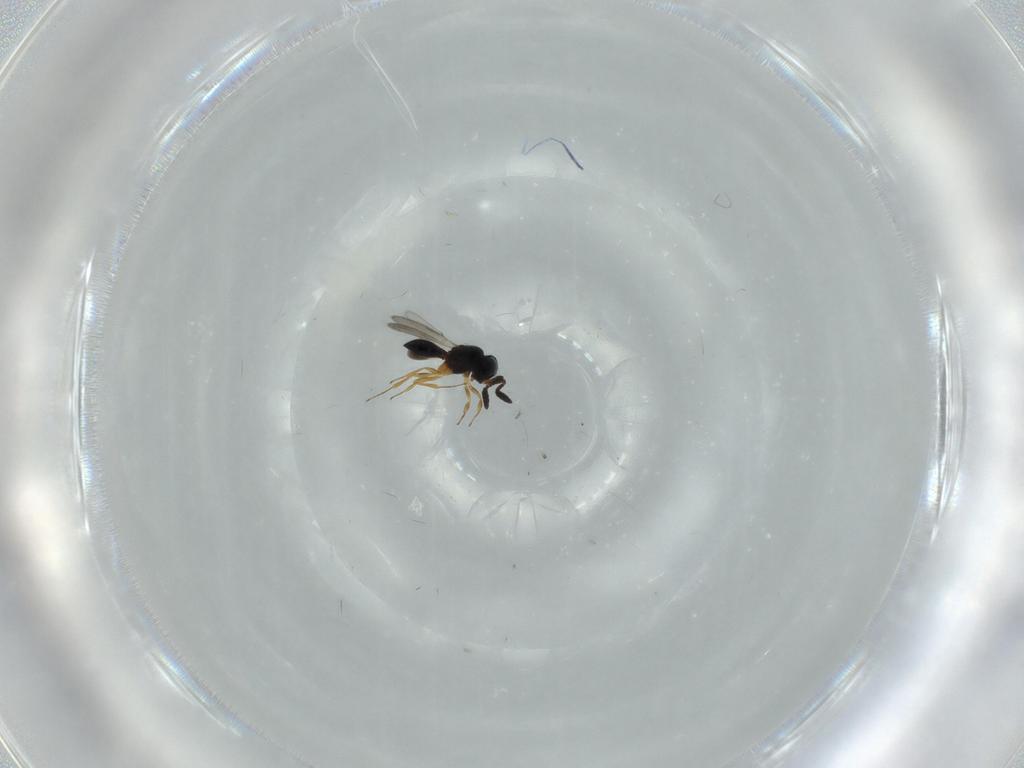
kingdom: Animalia
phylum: Arthropoda
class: Insecta
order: Hymenoptera
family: Scelionidae
